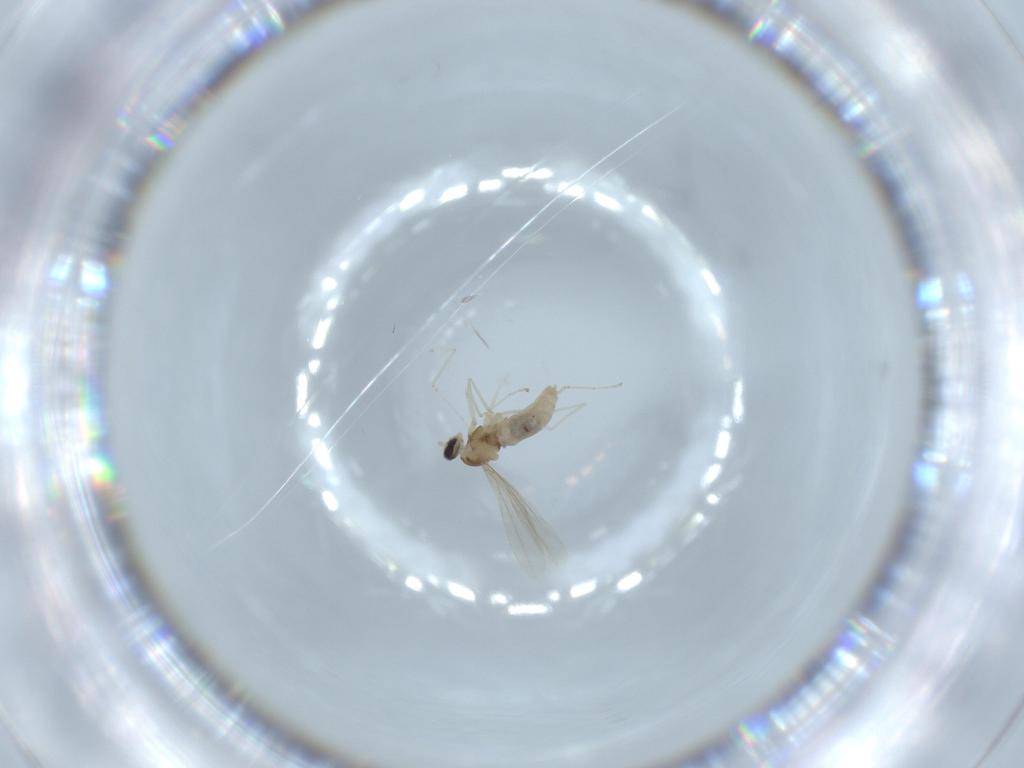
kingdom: Animalia
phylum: Arthropoda
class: Insecta
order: Diptera
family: Cecidomyiidae
